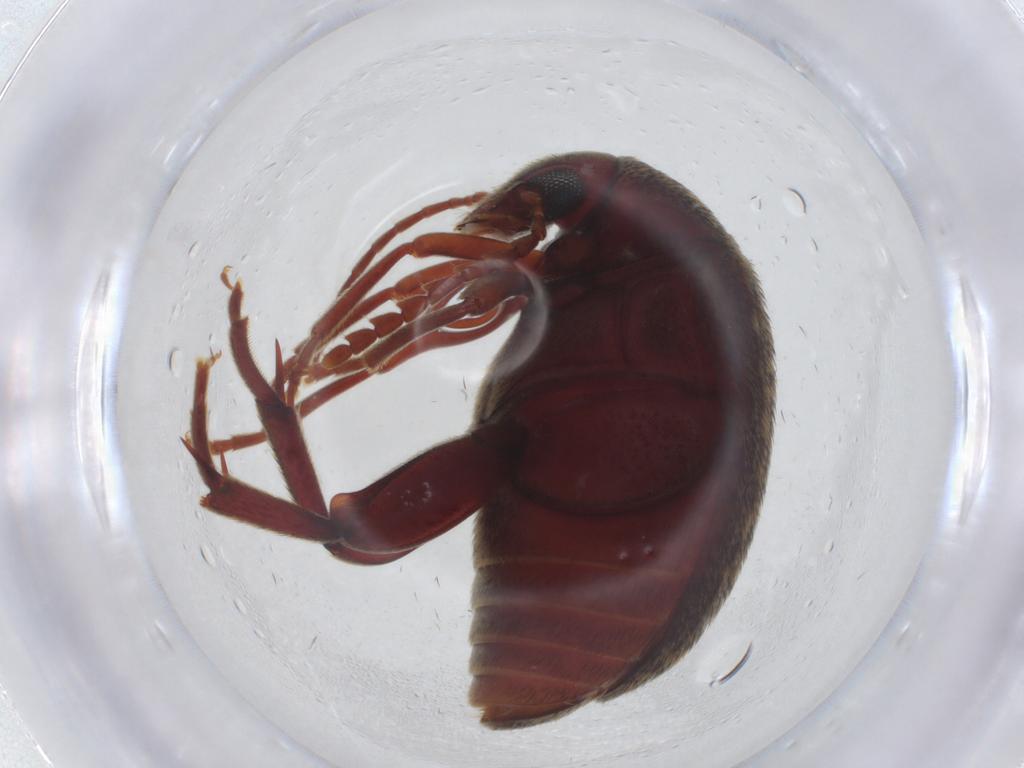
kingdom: Animalia
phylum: Arthropoda
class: Insecta
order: Coleoptera
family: Chrysomelidae
